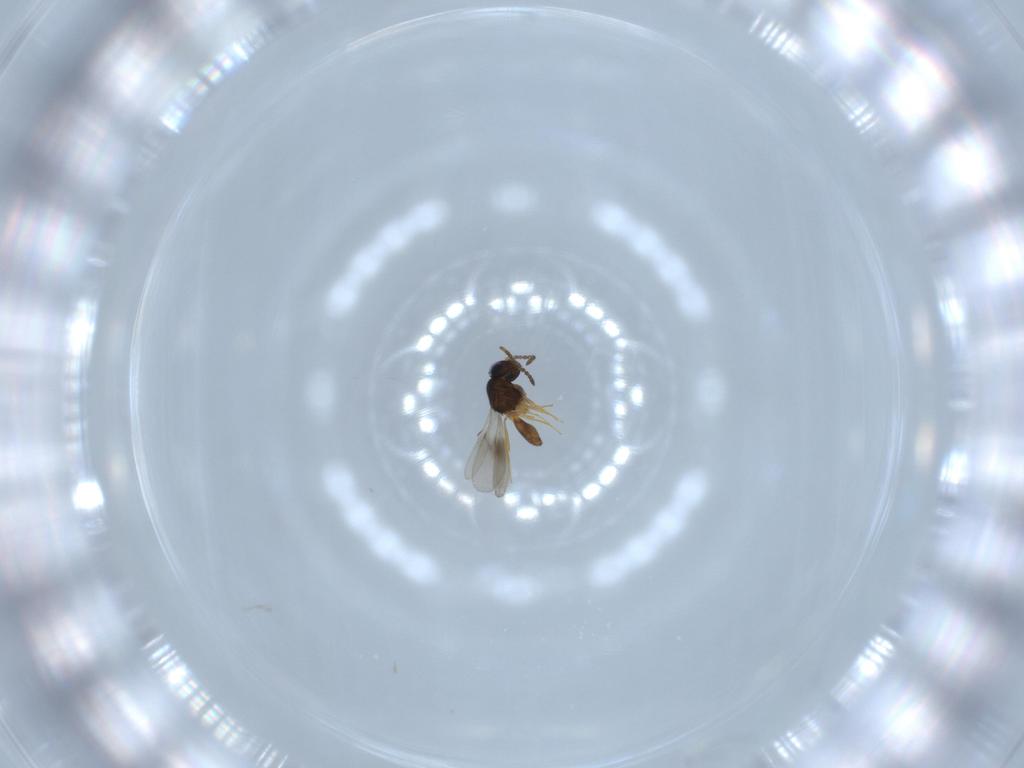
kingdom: Animalia
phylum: Arthropoda
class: Insecta
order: Hymenoptera
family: Scelionidae
